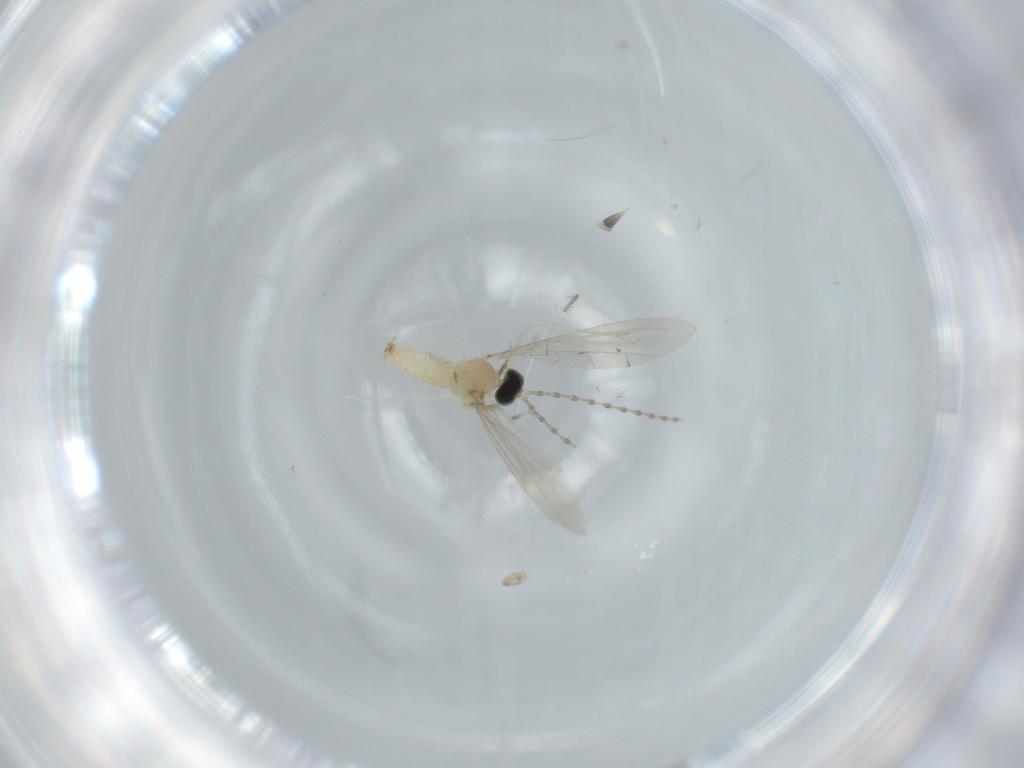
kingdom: Animalia
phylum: Arthropoda
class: Insecta
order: Diptera
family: Cecidomyiidae
